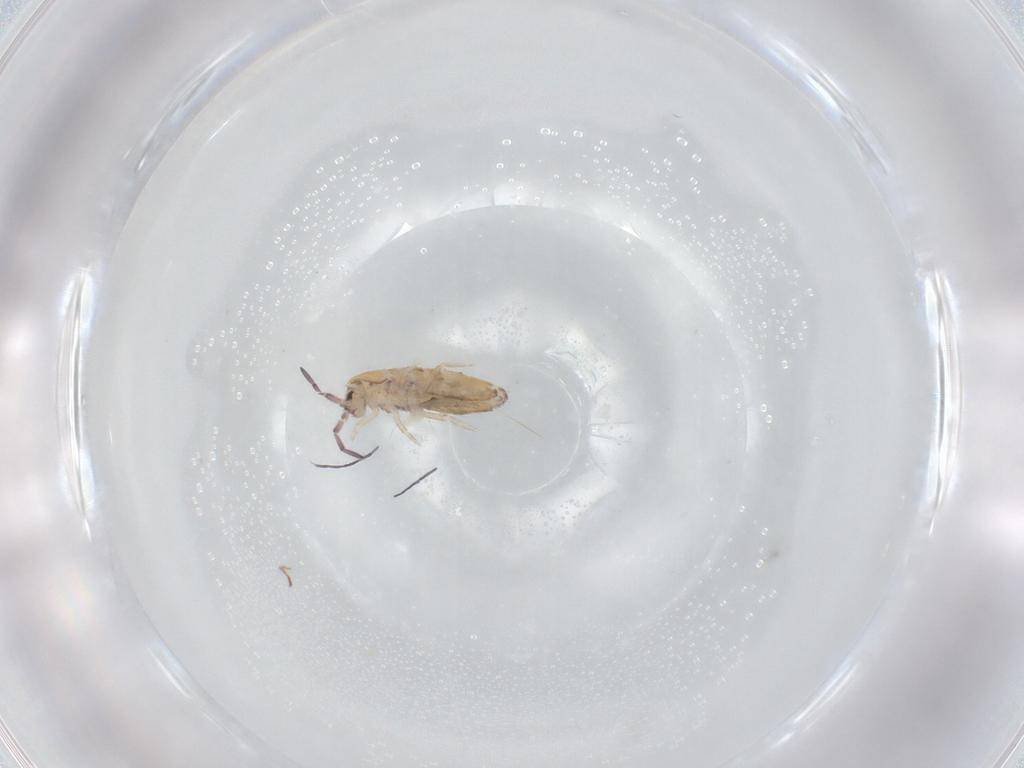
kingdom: Animalia
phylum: Arthropoda
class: Collembola
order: Entomobryomorpha
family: Entomobryidae
